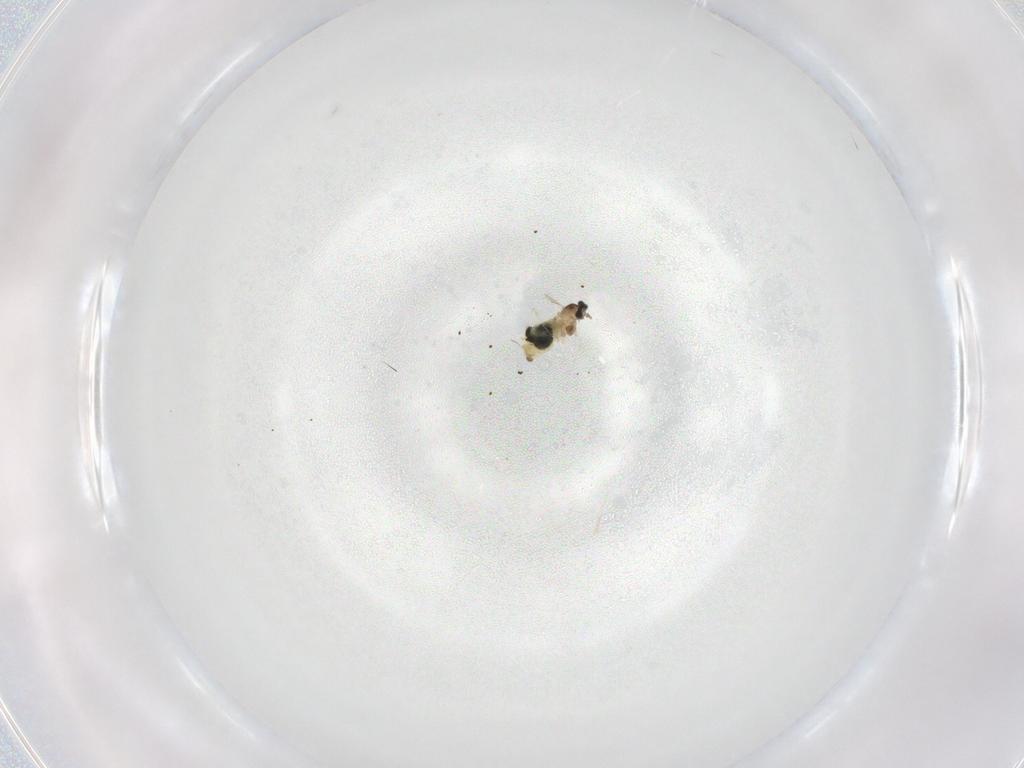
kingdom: Animalia
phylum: Arthropoda
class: Insecta
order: Diptera
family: Cecidomyiidae
